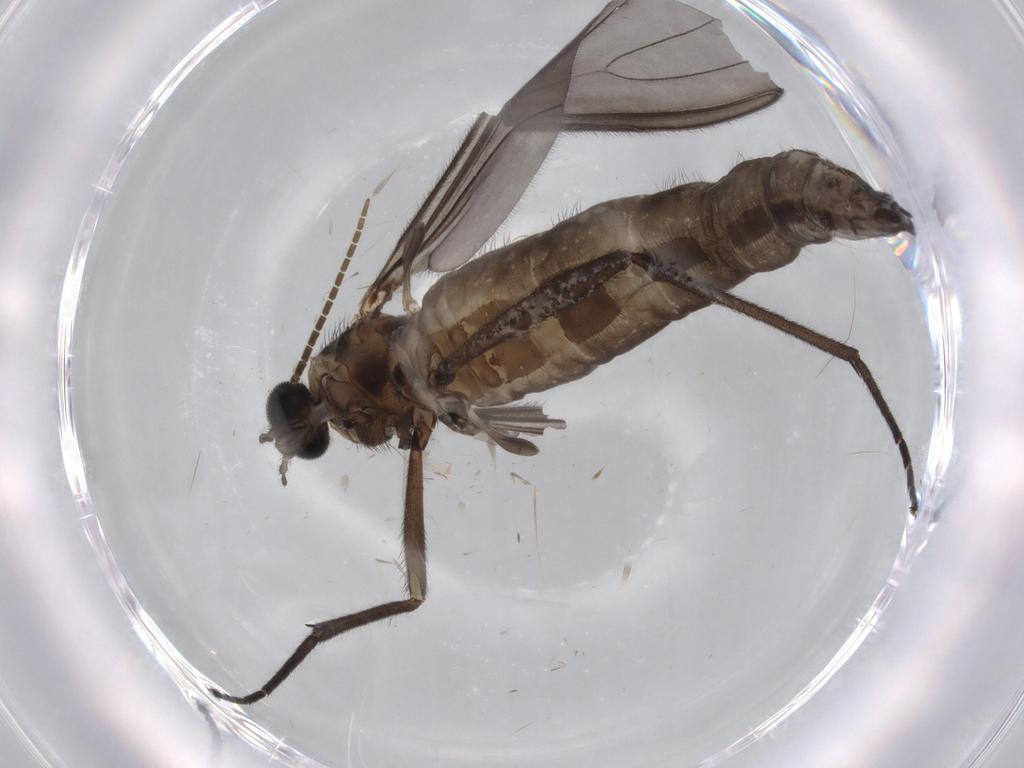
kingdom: Animalia
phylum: Arthropoda
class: Insecta
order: Diptera
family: Sciaridae
